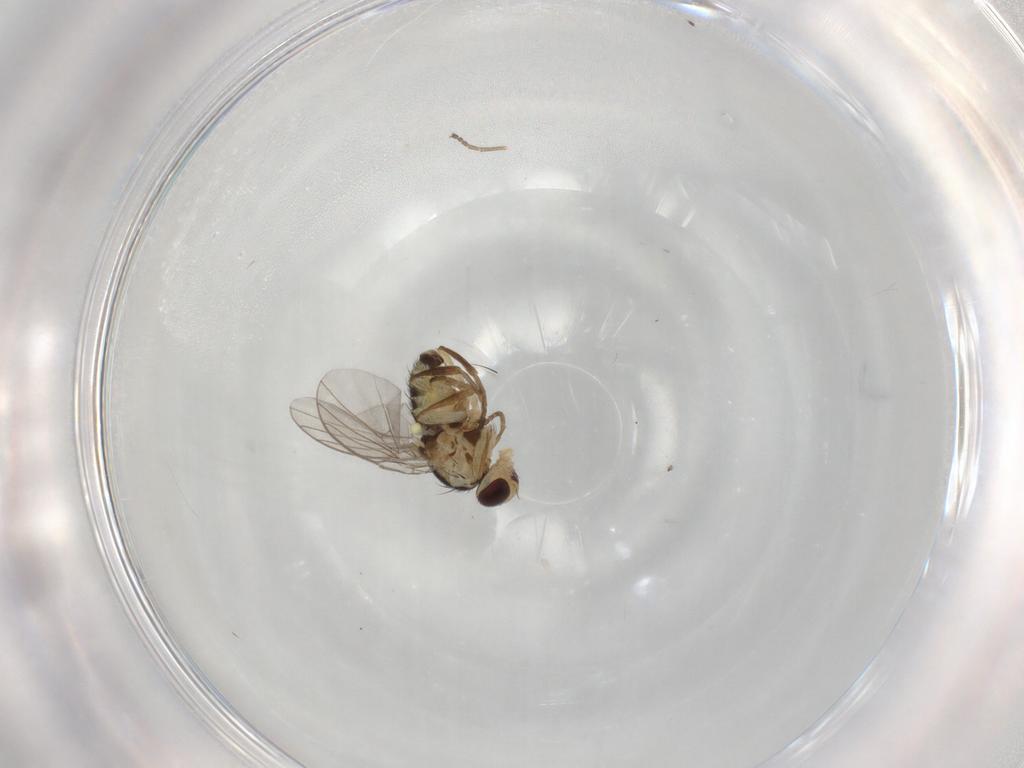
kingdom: Animalia
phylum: Arthropoda
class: Insecta
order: Diptera
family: Agromyzidae
